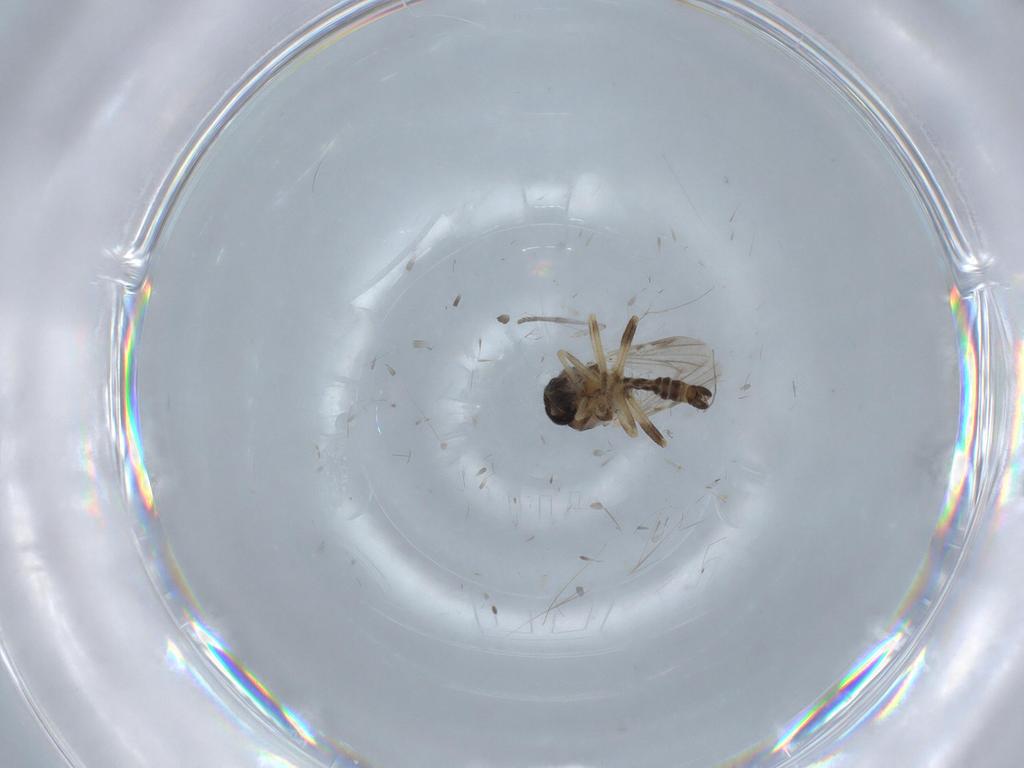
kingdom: Animalia
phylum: Arthropoda
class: Insecta
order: Diptera
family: Ceratopogonidae
